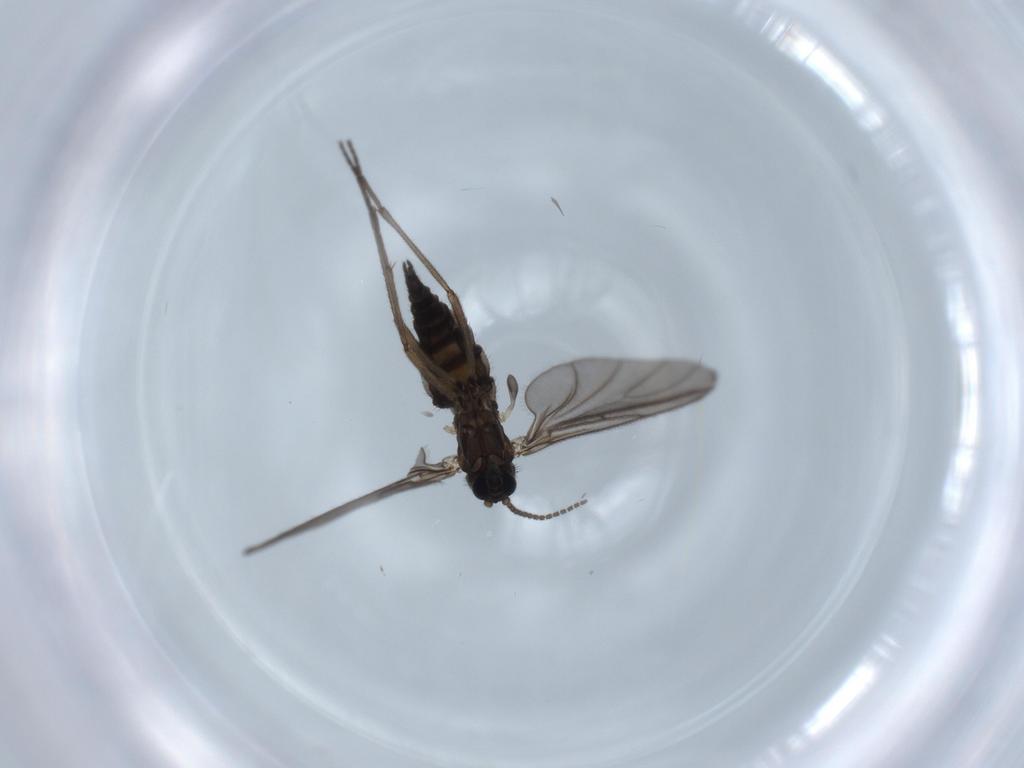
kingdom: Animalia
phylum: Arthropoda
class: Insecta
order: Diptera
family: Sciaridae
